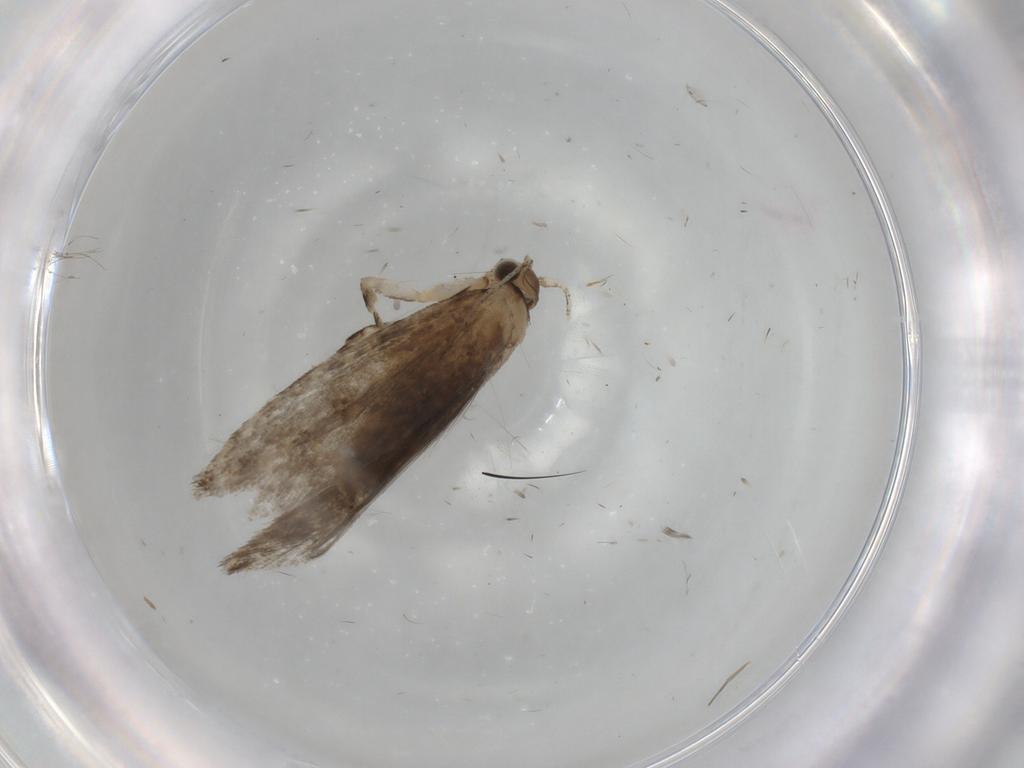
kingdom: Animalia
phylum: Arthropoda
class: Insecta
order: Lepidoptera
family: Tineidae
